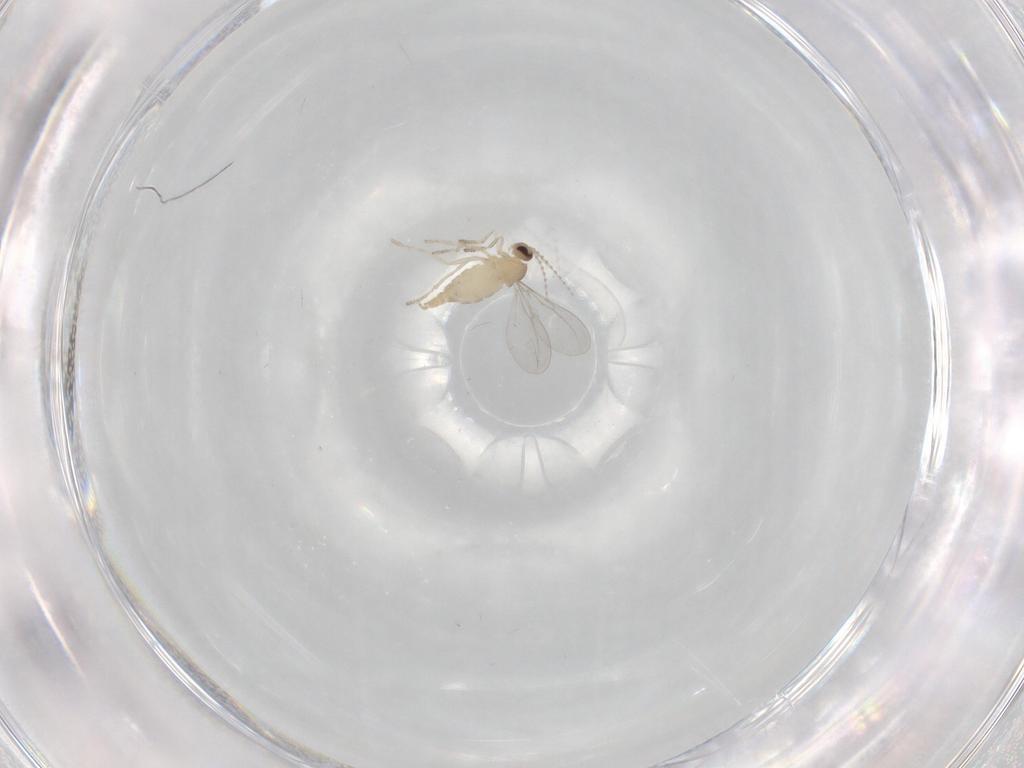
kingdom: Animalia
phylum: Arthropoda
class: Insecta
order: Diptera
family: Cecidomyiidae
